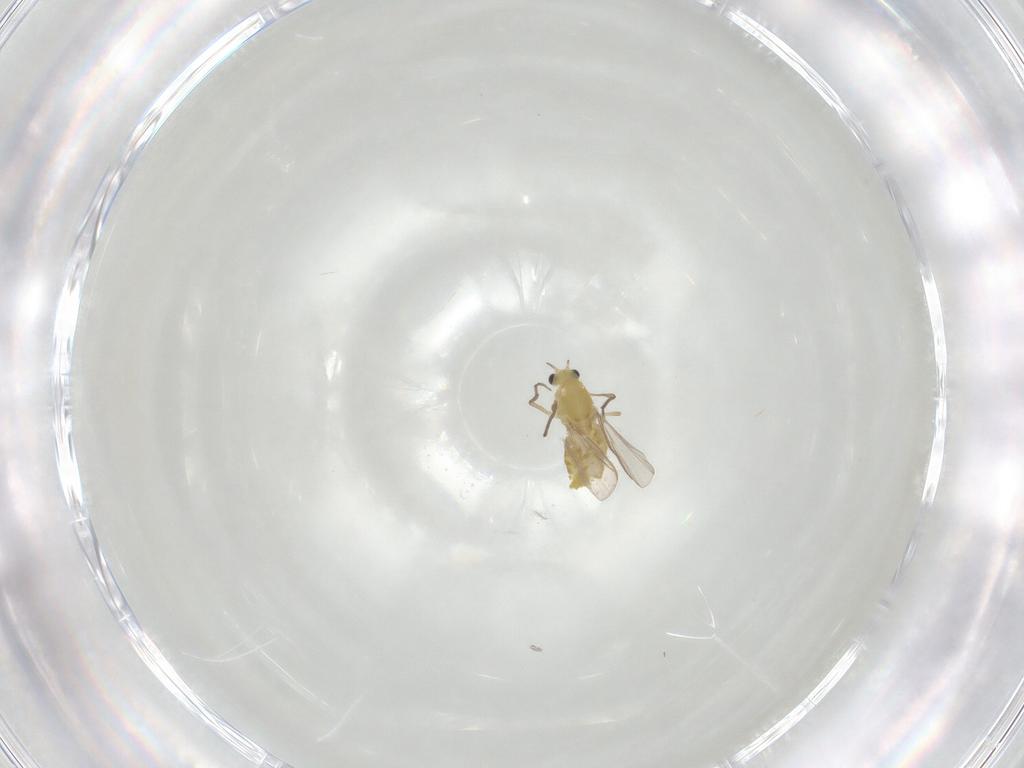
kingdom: Animalia
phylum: Arthropoda
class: Insecta
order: Diptera
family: Chironomidae
